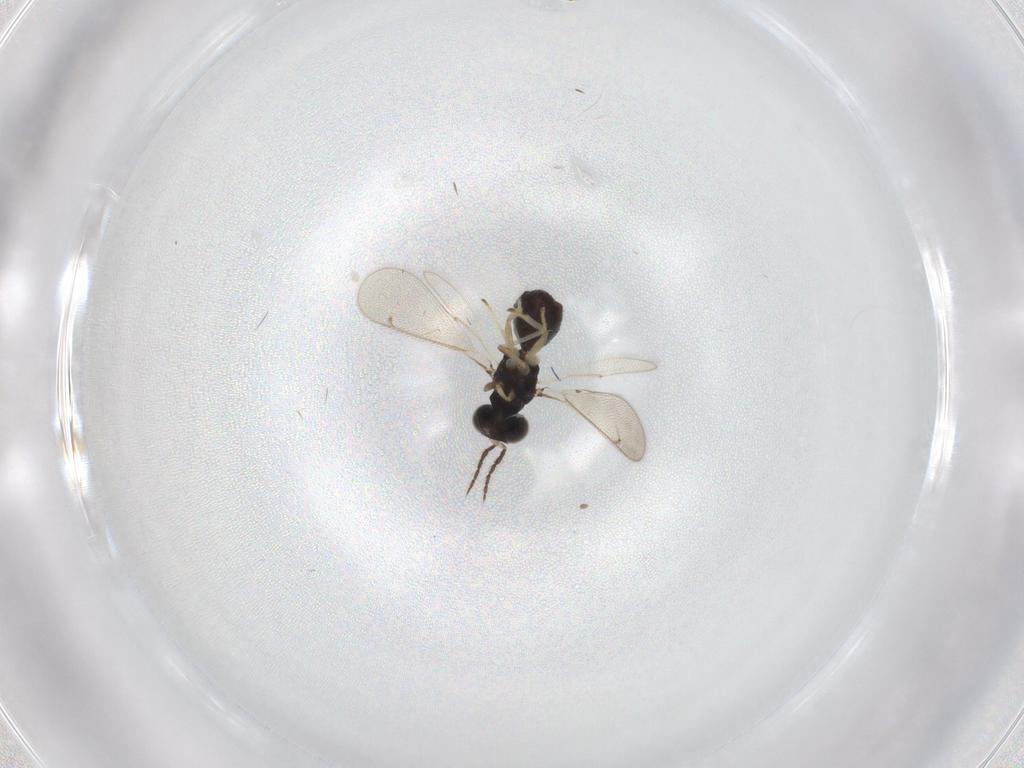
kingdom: Animalia
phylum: Arthropoda
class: Insecta
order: Hymenoptera
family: Eulophidae
